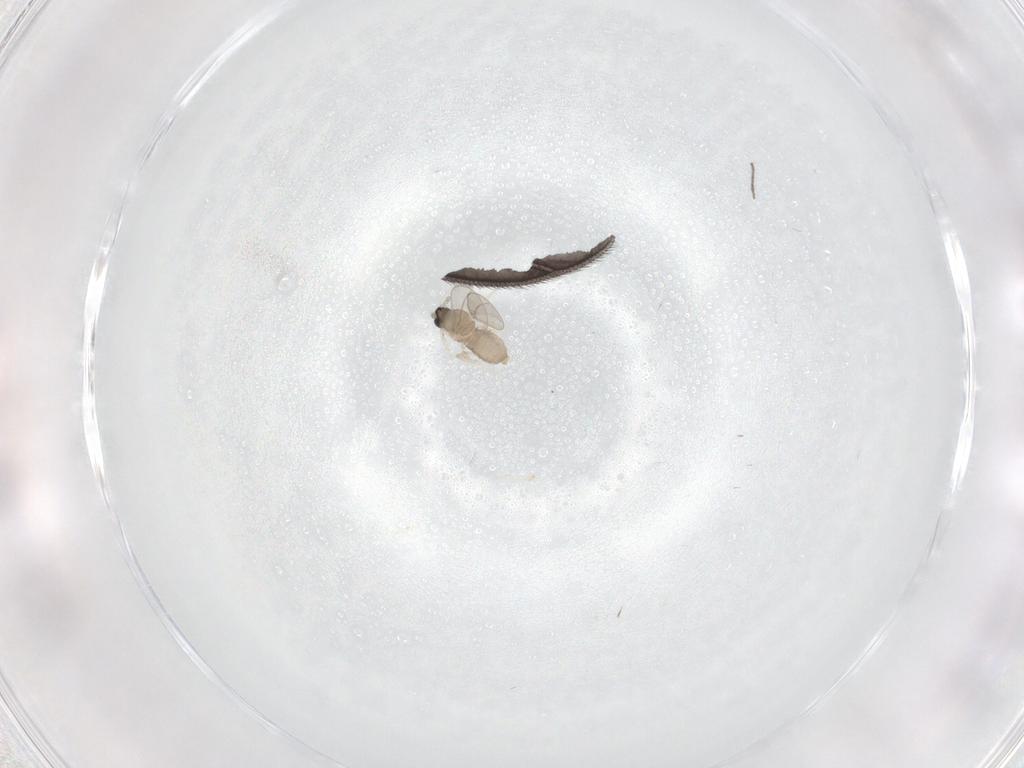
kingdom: Animalia
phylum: Arthropoda
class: Insecta
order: Diptera
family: Cecidomyiidae
